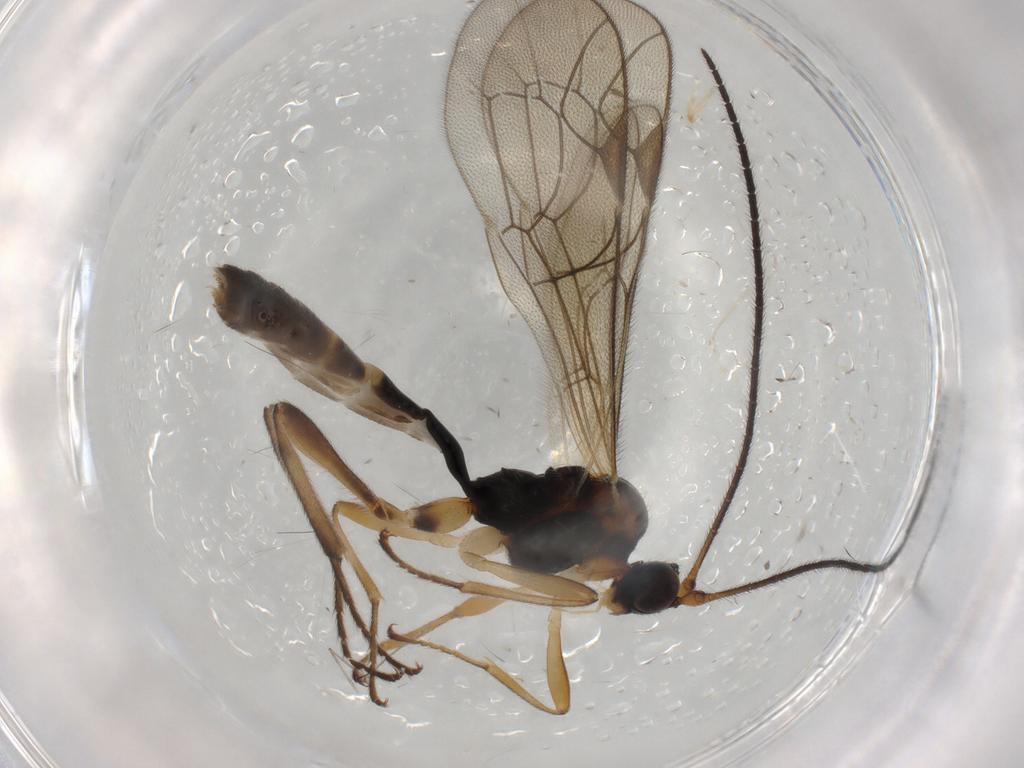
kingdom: Animalia
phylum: Arthropoda
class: Insecta
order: Hymenoptera
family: Ichneumonidae
